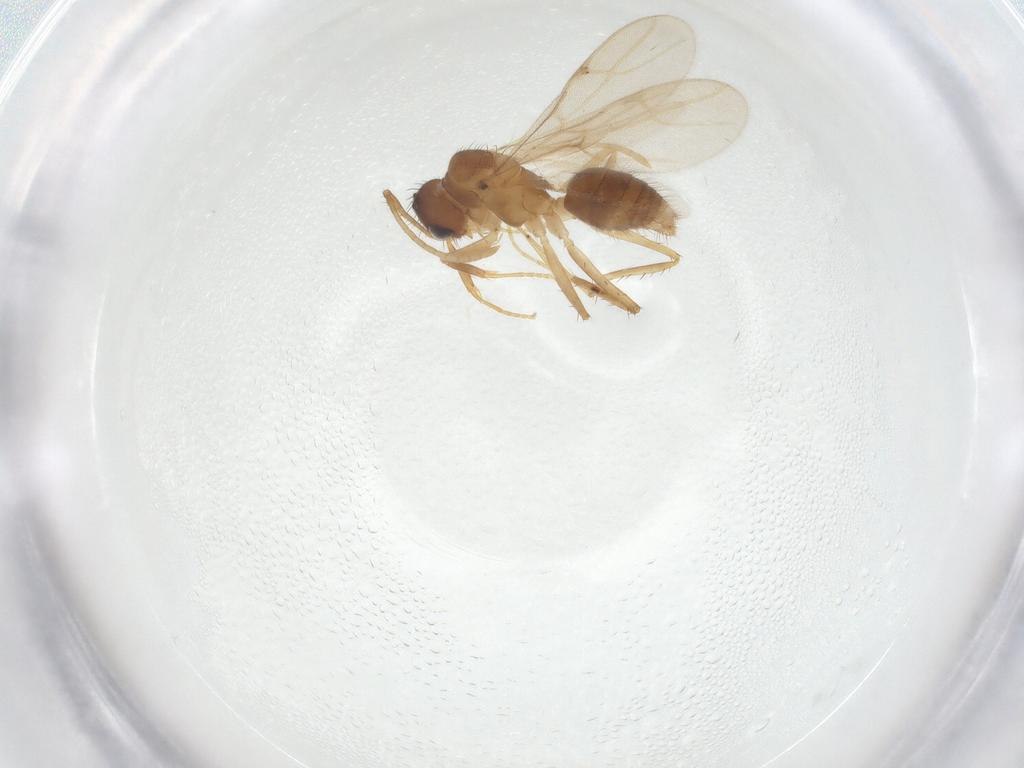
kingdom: Animalia
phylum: Arthropoda
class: Insecta
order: Hymenoptera
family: Formicidae
